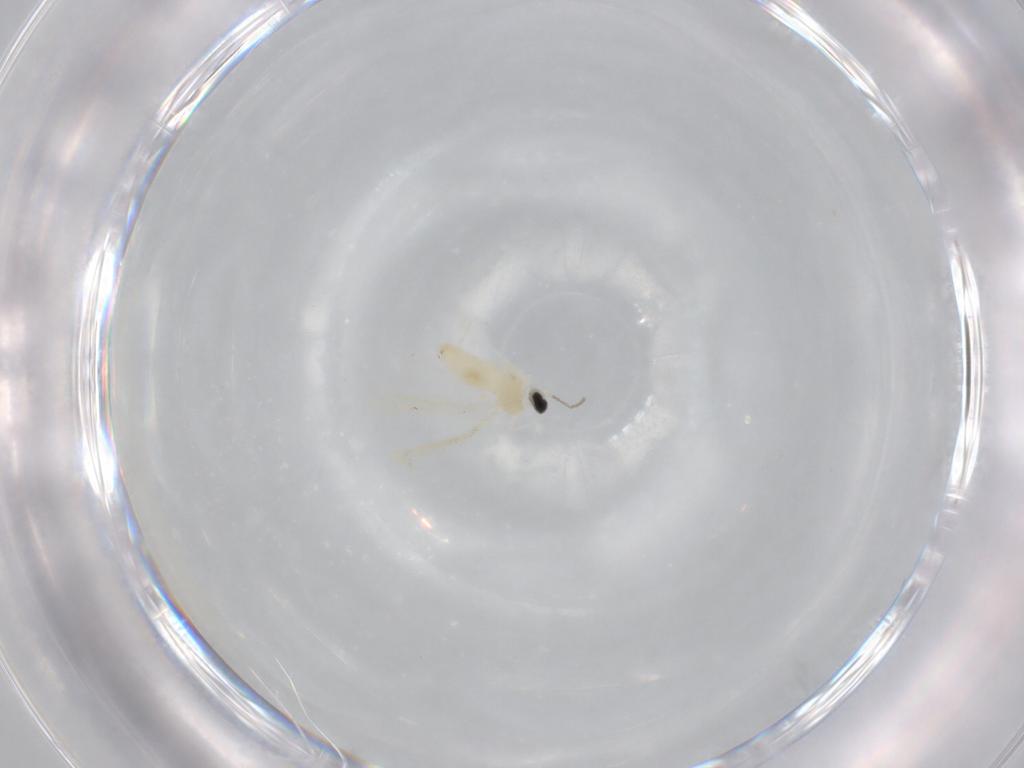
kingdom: Animalia
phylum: Arthropoda
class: Insecta
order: Diptera
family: Cecidomyiidae
